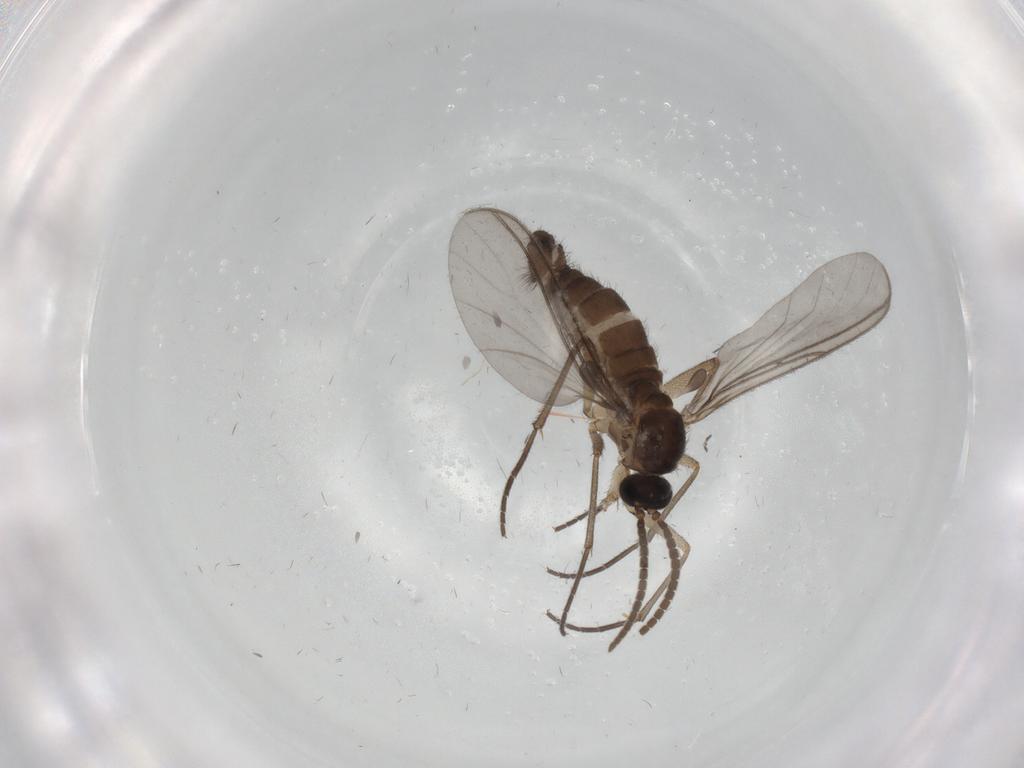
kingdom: Animalia
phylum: Arthropoda
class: Insecta
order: Diptera
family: Sciaridae
